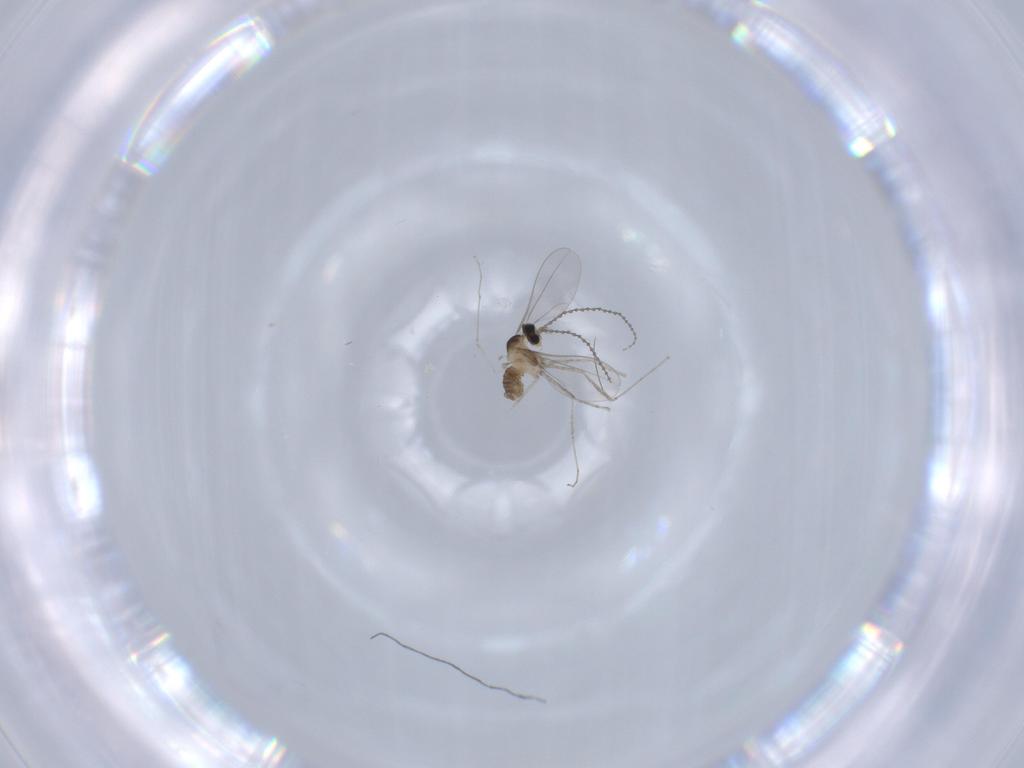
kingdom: Animalia
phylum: Arthropoda
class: Insecta
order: Diptera
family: Cecidomyiidae
